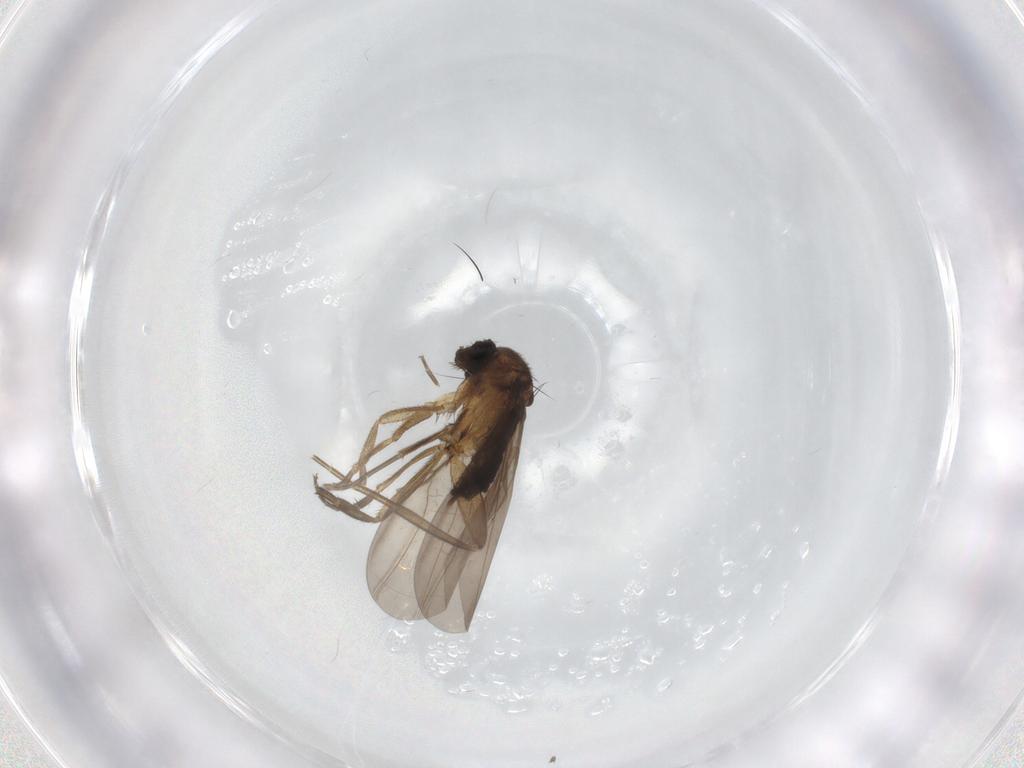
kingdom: Animalia
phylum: Arthropoda
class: Insecta
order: Diptera
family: Phoridae
